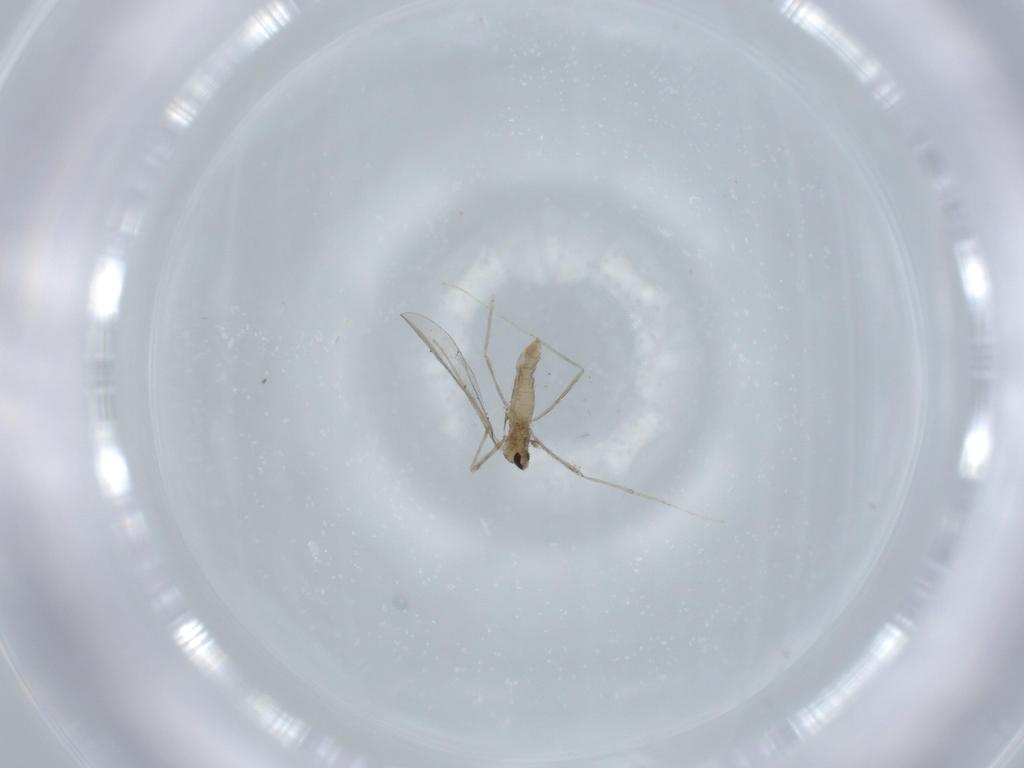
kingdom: Animalia
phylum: Arthropoda
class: Insecta
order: Diptera
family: Cecidomyiidae
